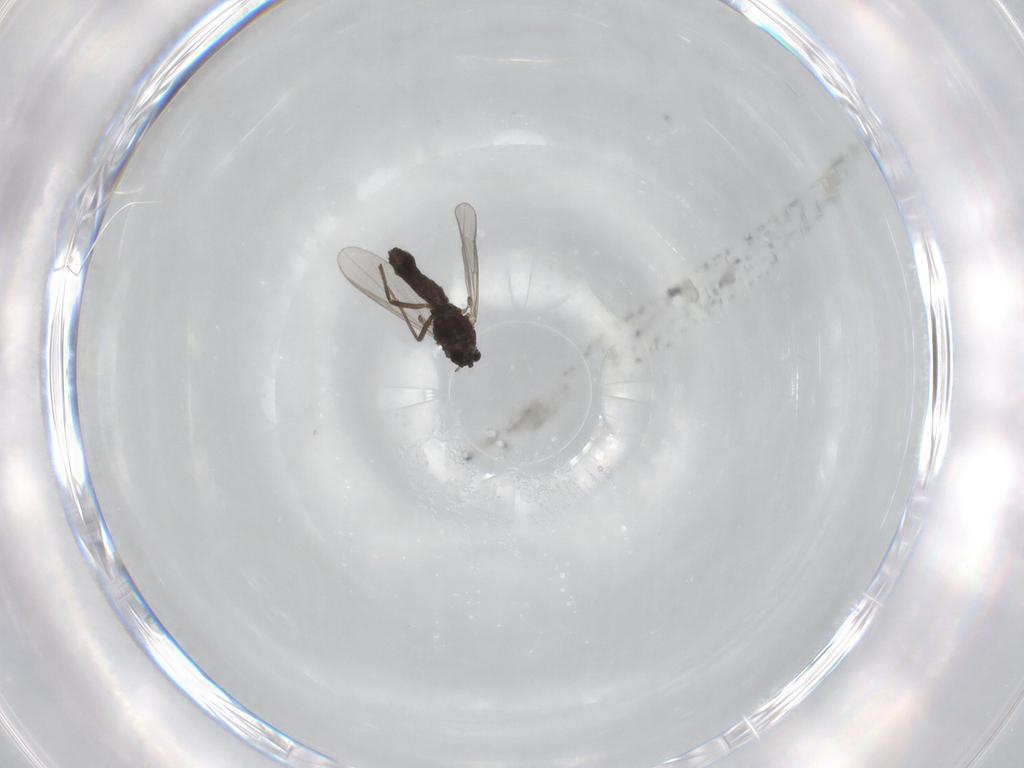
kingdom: Animalia
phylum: Arthropoda
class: Insecta
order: Diptera
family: Chironomidae
